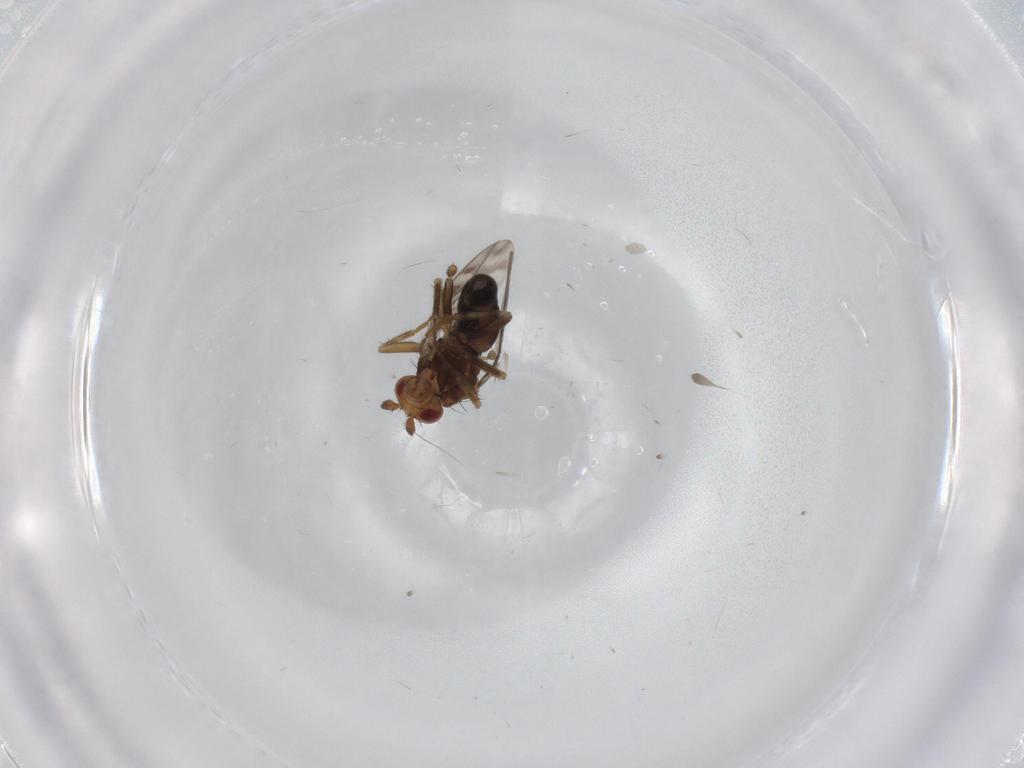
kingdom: Animalia
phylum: Arthropoda
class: Insecta
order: Diptera
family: Sphaeroceridae
